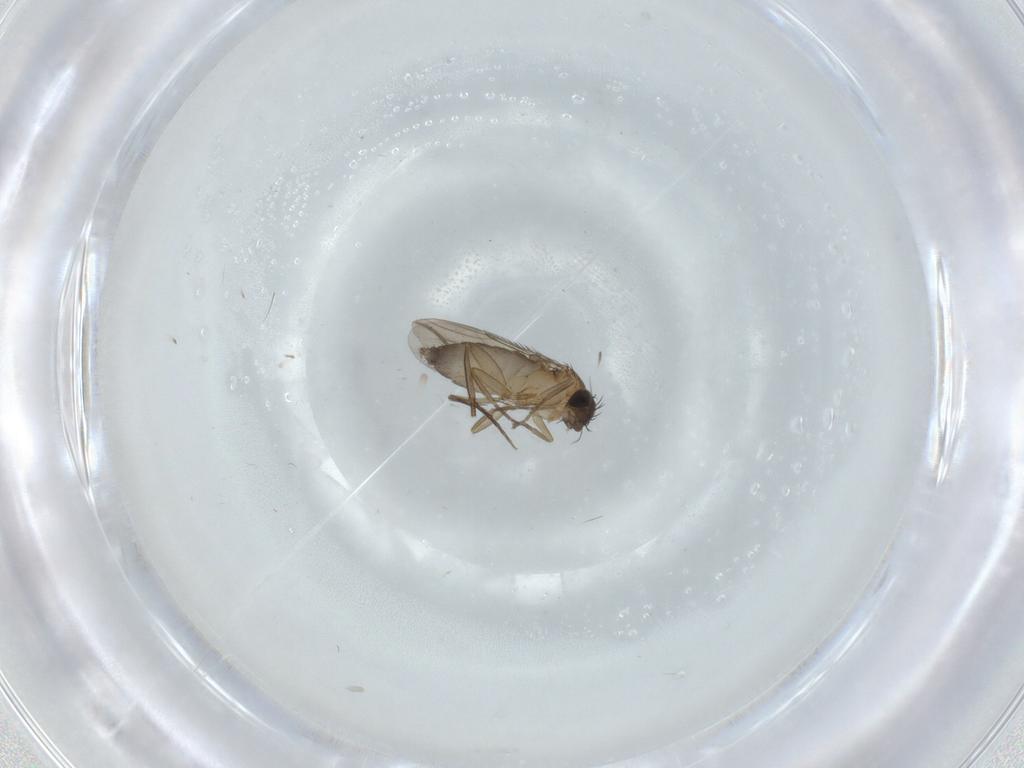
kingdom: Animalia
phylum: Arthropoda
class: Insecta
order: Diptera
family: Phoridae
